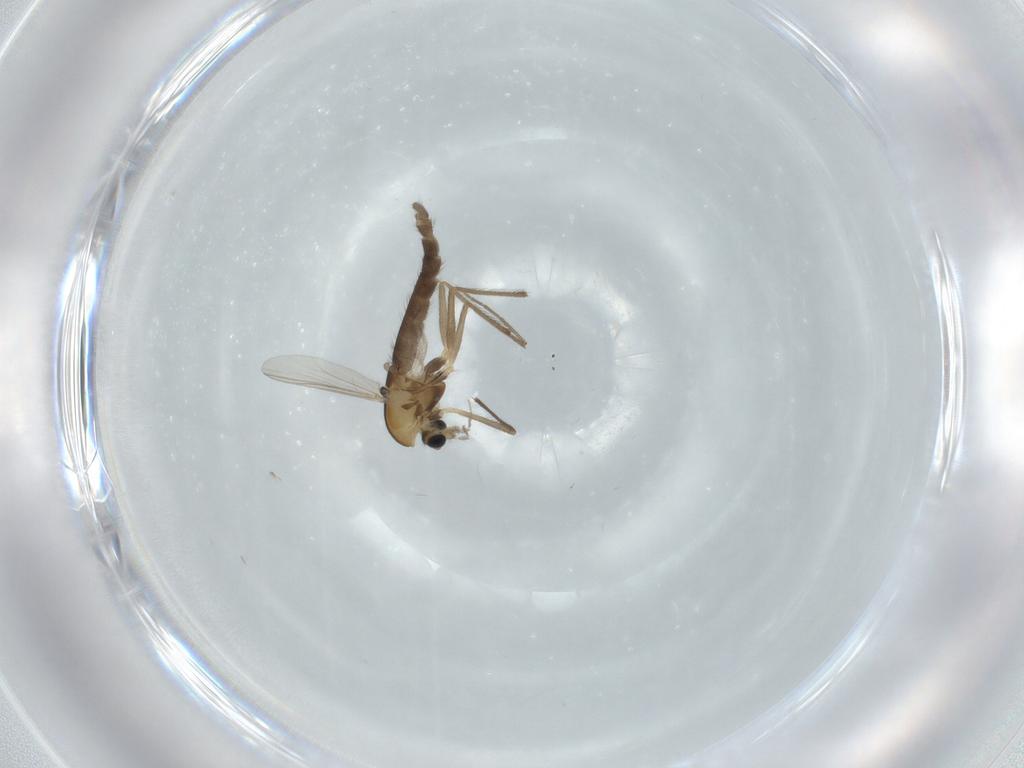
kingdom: Animalia
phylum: Arthropoda
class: Insecta
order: Diptera
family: Chironomidae
